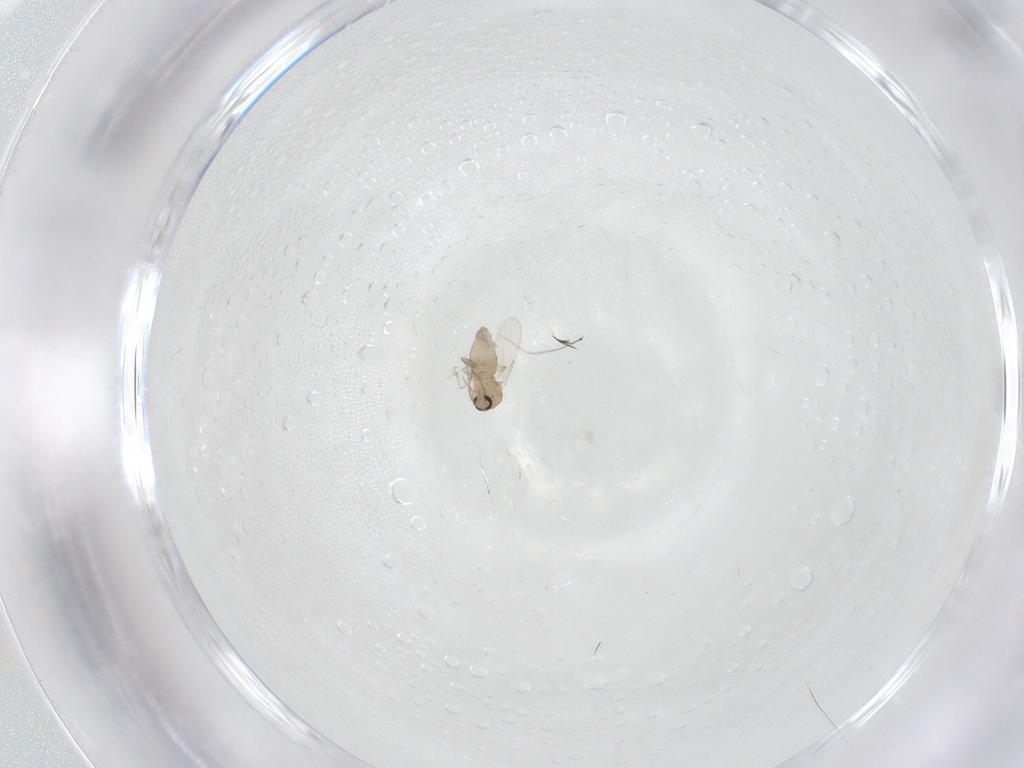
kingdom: Animalia
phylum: Arthropoda
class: Insecta
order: Diptera
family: Ceratopogonidae
